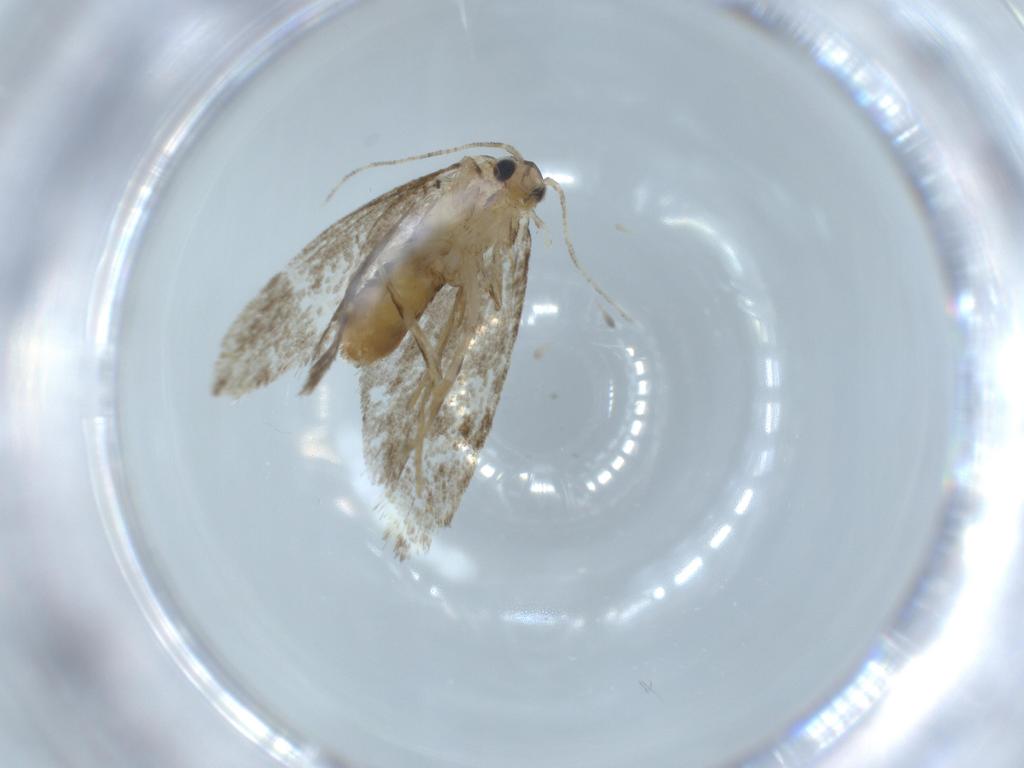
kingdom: Animalia
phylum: Arthropoda
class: Insecta
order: Lepidoptera
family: Tineidae
